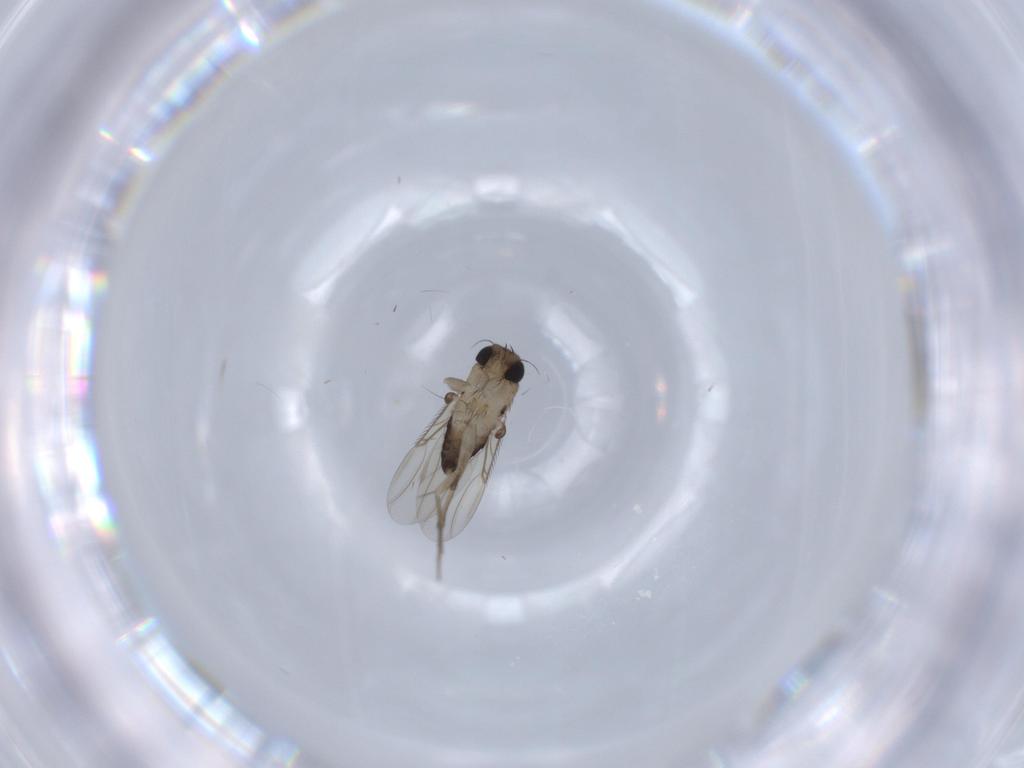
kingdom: Animalia
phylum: Arthropoda
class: Insecta
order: Diptera
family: Phoridae
